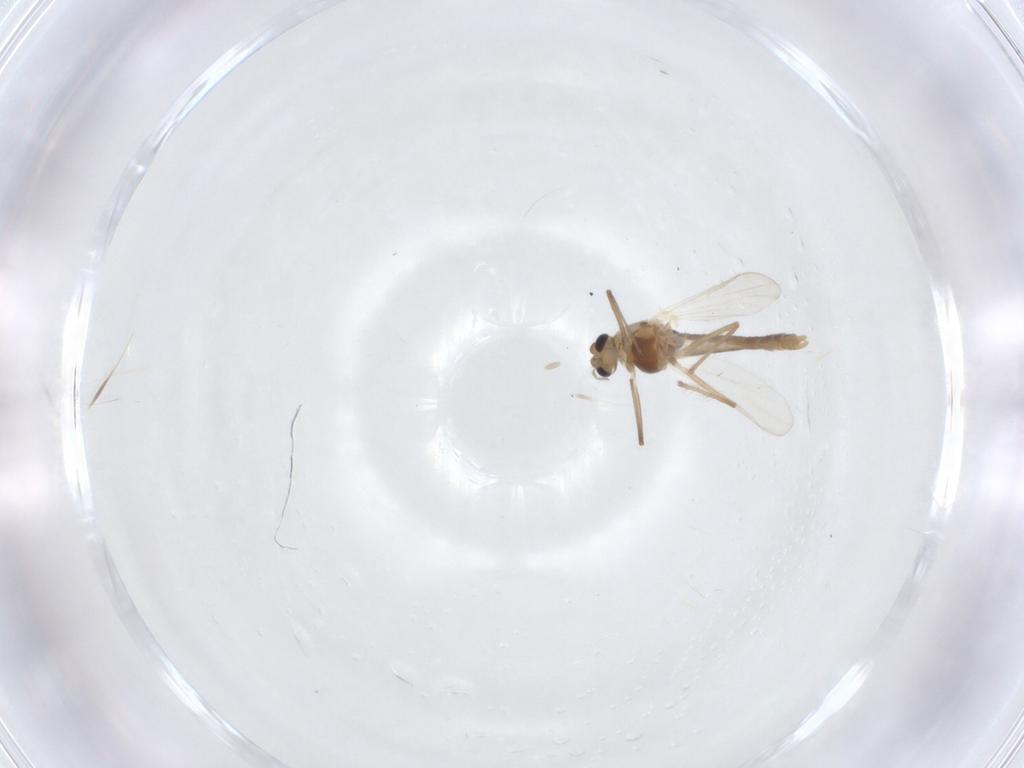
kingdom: Animalia
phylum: Arthropoda
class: Insecta
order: Diptera
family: Chironomidae
